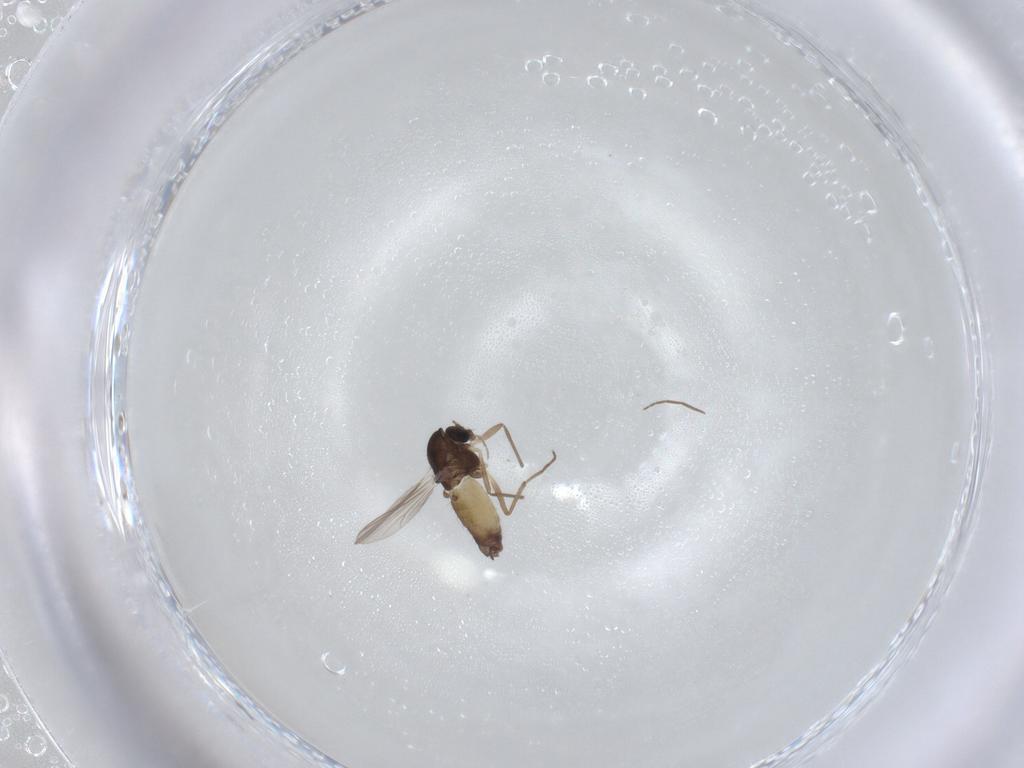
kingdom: Animalia
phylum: Arthropoda
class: Insecta
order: Diptera
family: Chironomidae
